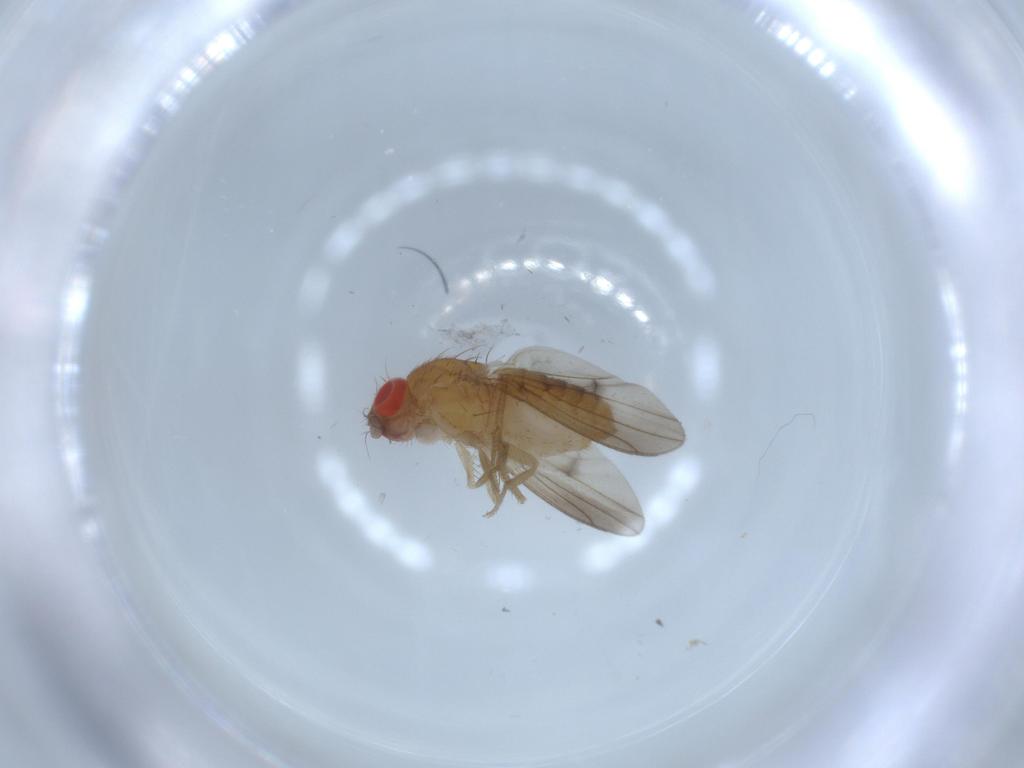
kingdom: Animalia
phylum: Arthropoda
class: Insecta
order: Diptera
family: Drosophilidae
